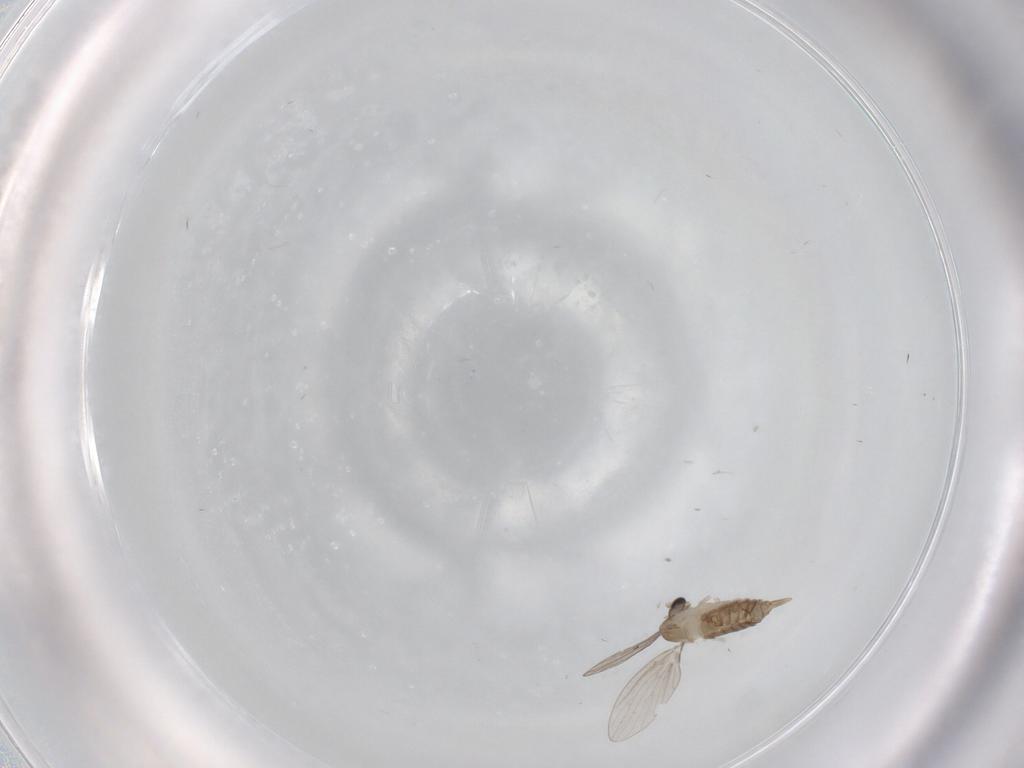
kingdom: Animalia
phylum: Arthropoda
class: Insecta
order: Diptera
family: Tabanidae
